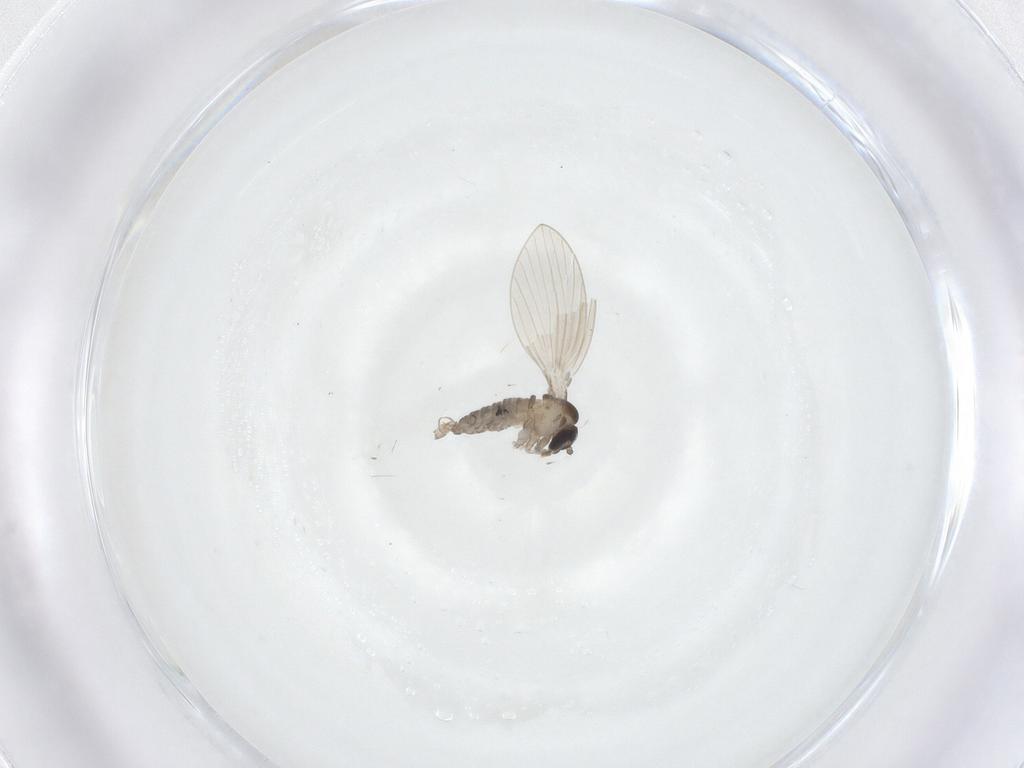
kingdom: Animalia
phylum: Arthropoda
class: Insecta
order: Diptera
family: Psychodidae
